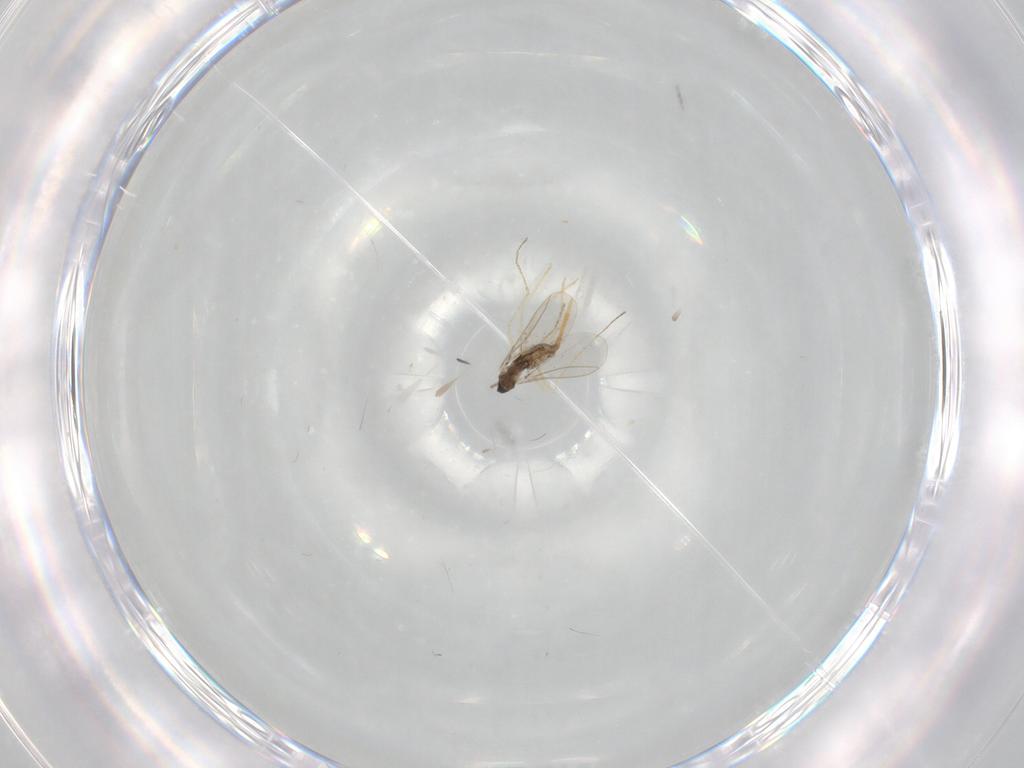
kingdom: Animalia
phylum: Arthropoda
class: Insecta
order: Diptera
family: Cecidomyiidae
